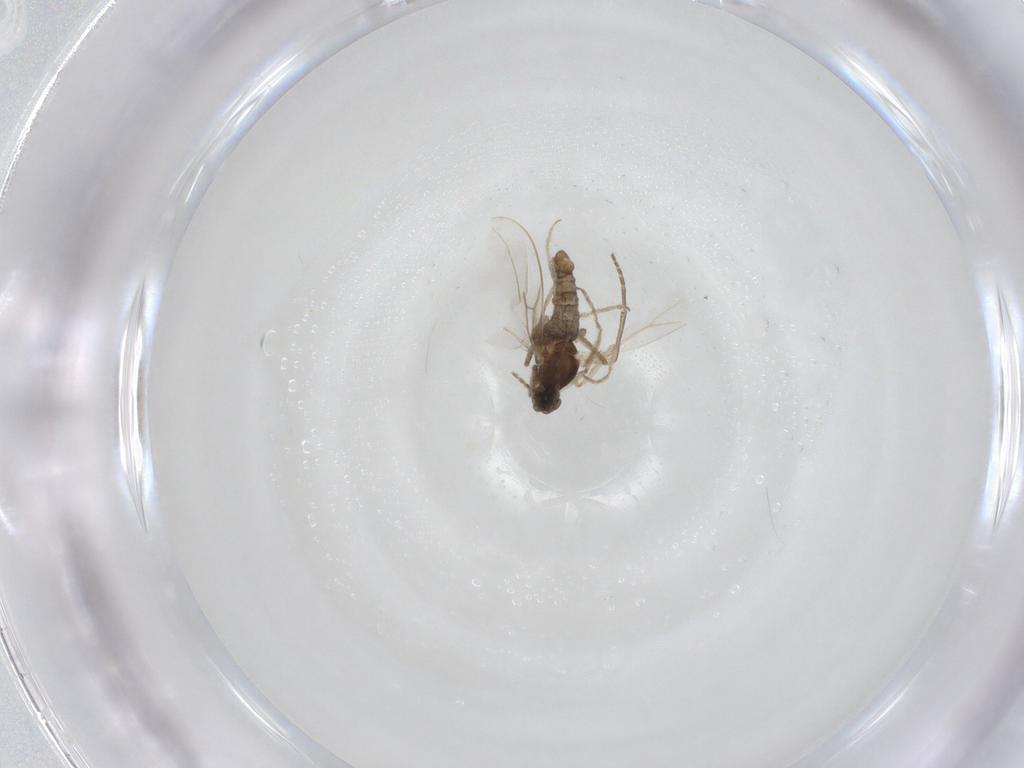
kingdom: Animalia
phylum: Arthropoda
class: Insecta
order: Diptera
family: Cecidomyiidae
